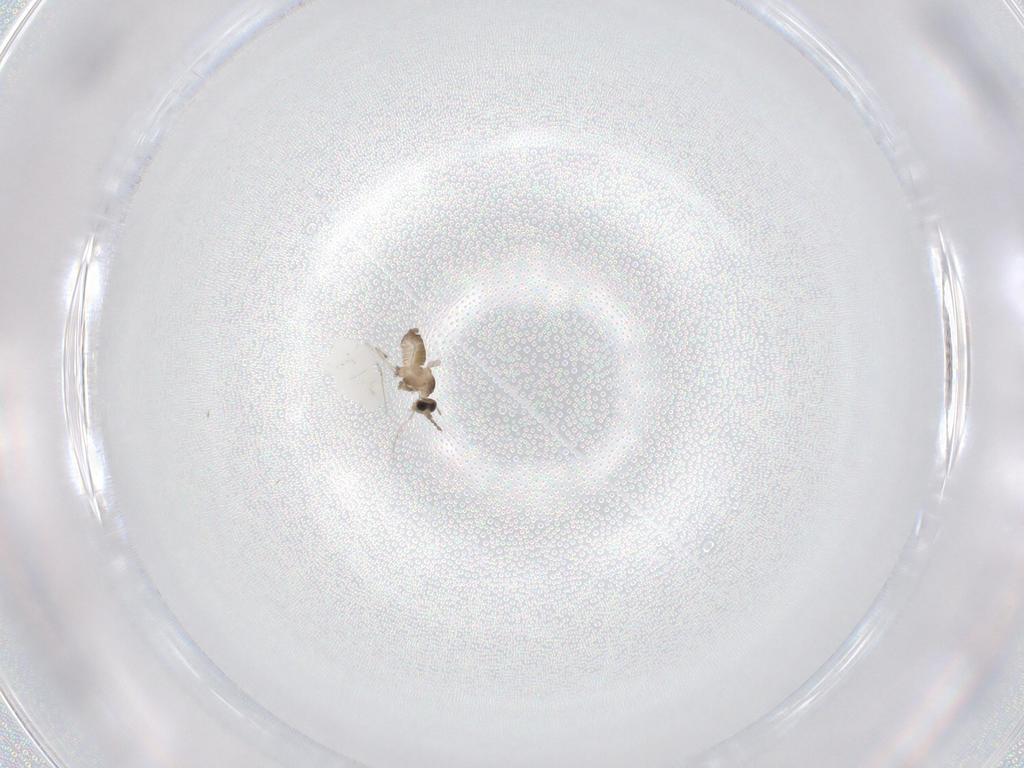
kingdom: Animalia
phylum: Arthropoda
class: Insecta
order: Diptera
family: Cecidomyiidae
